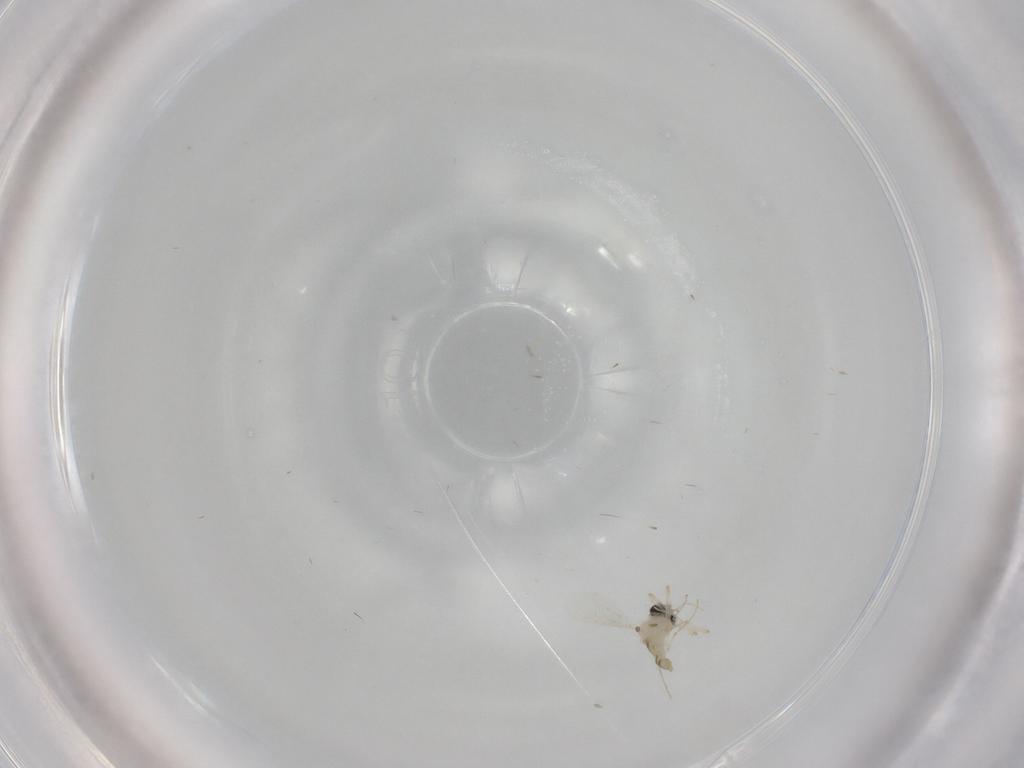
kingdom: Animalia
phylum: Arthropoda
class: Insecta
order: Diptera
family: Chironomidae
